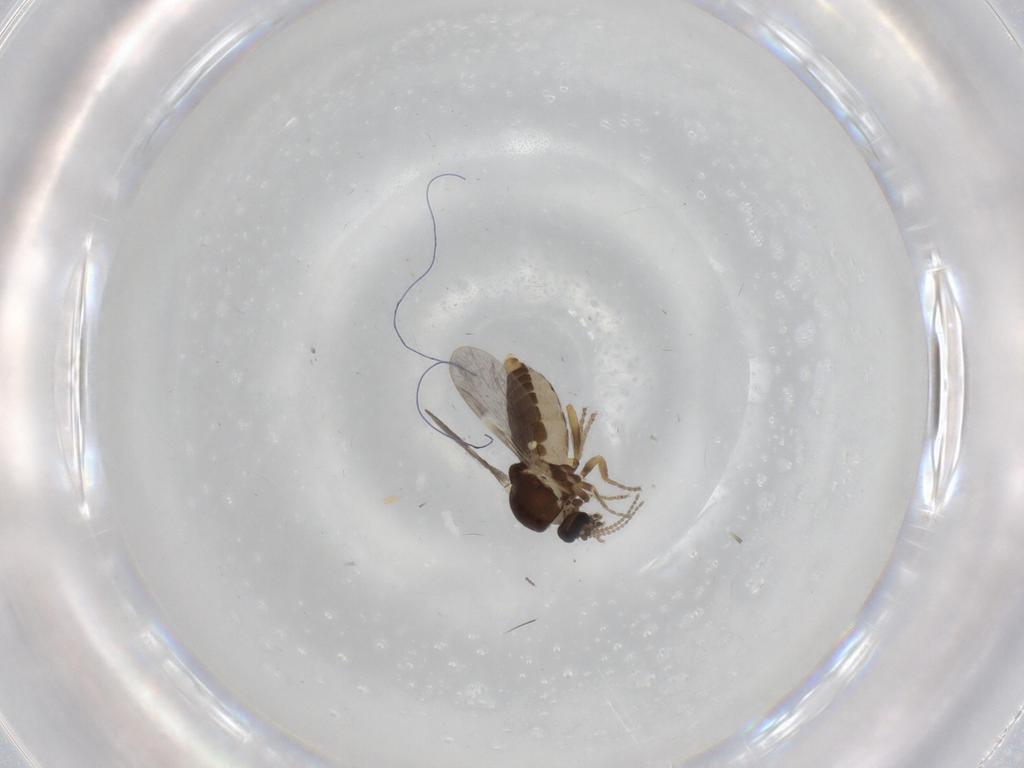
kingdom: Animalia
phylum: Arthropoda
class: Insecta
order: Diptera
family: Ceratopogonidae
